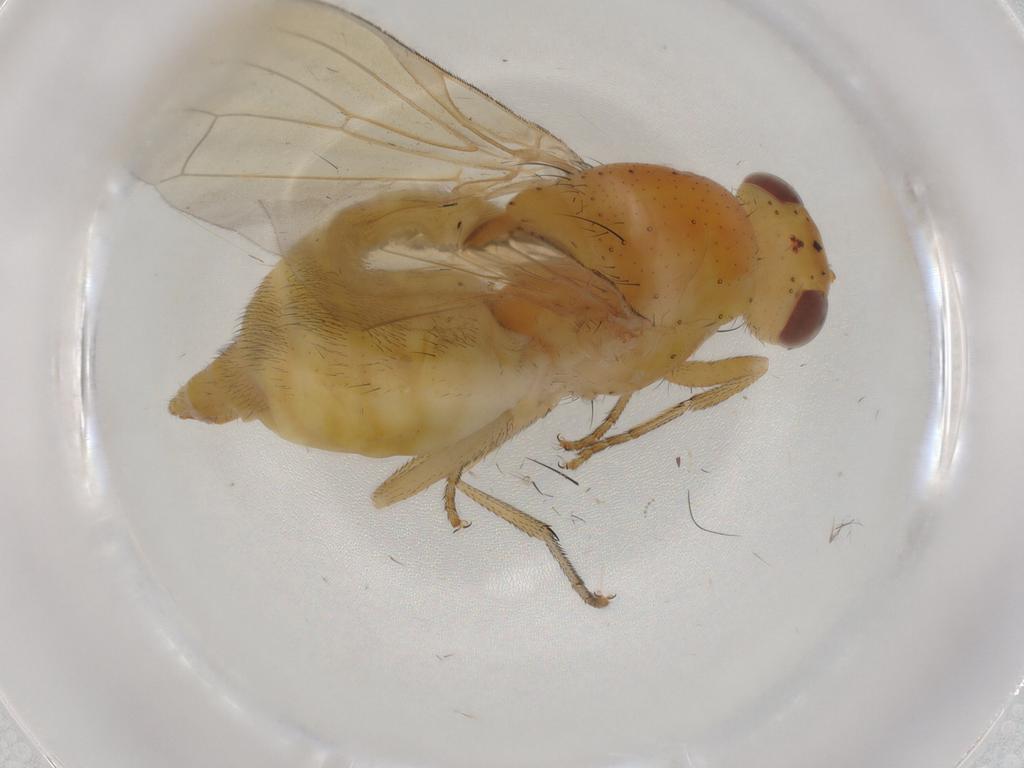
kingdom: Animalia
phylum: Arthropoda
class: Insecta
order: Diptera
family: Lauxaniidae
